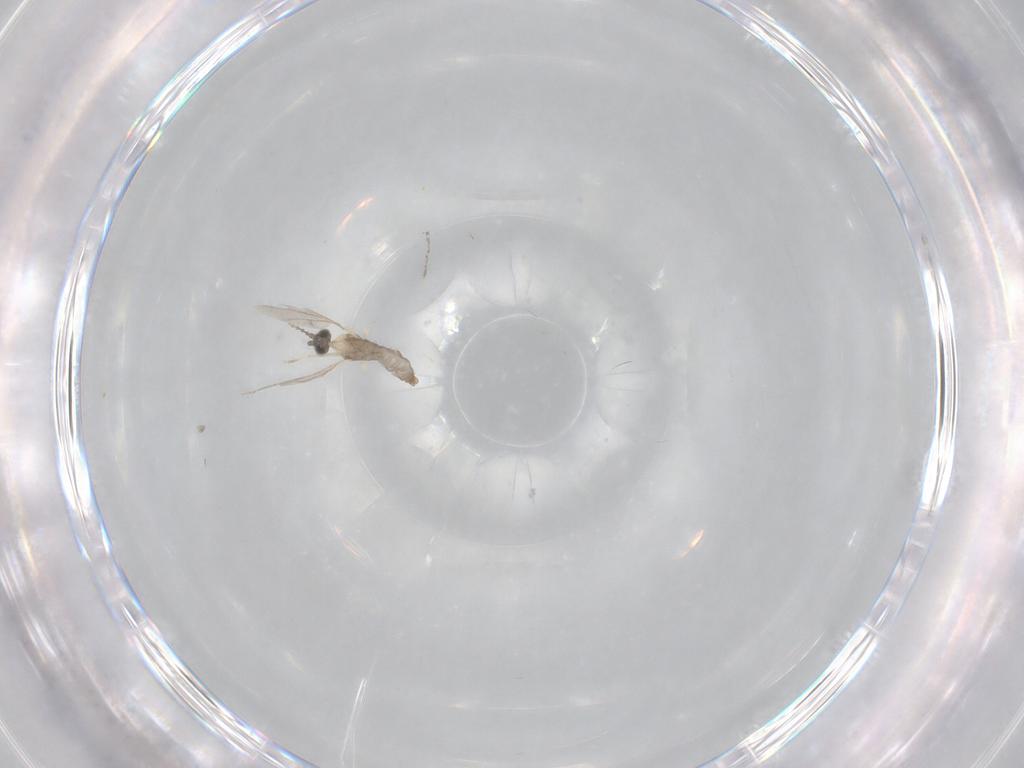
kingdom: Animalia
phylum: Arthropoda
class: Insecta
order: Diptera
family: Cecidomyiidae
